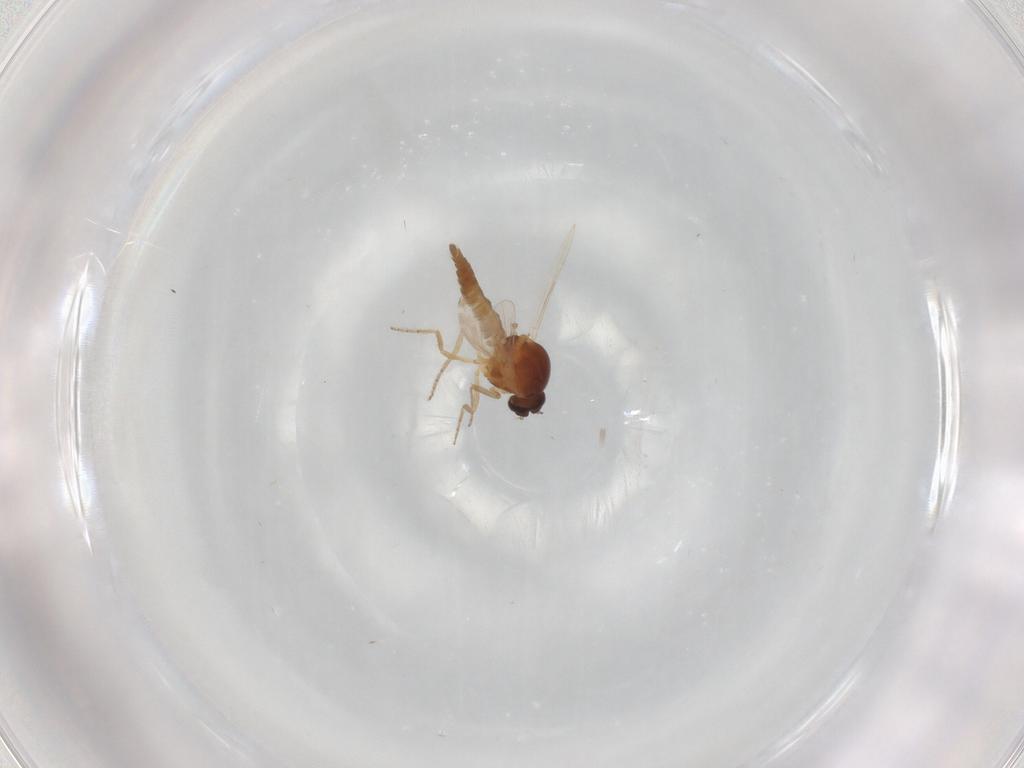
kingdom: Animalia
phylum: Arthropoda
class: Insecta
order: Diptera
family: Ceratopogonidae
